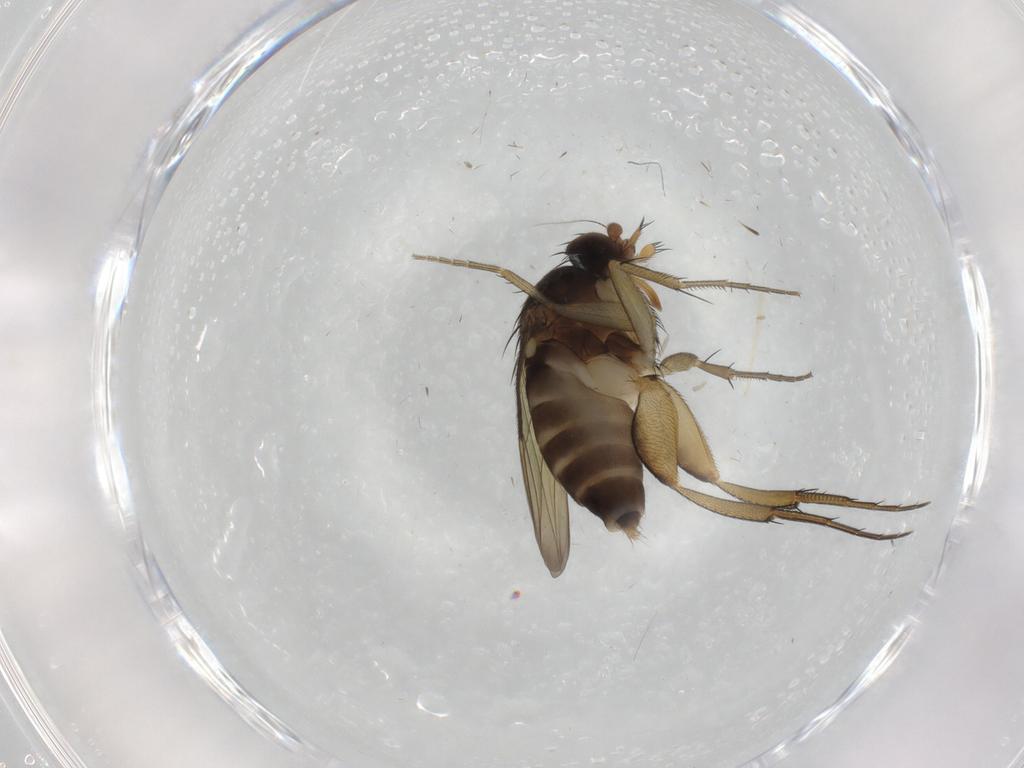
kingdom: Animalia
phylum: Arthropoda
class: Insecta
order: Diptera
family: Phoridae
